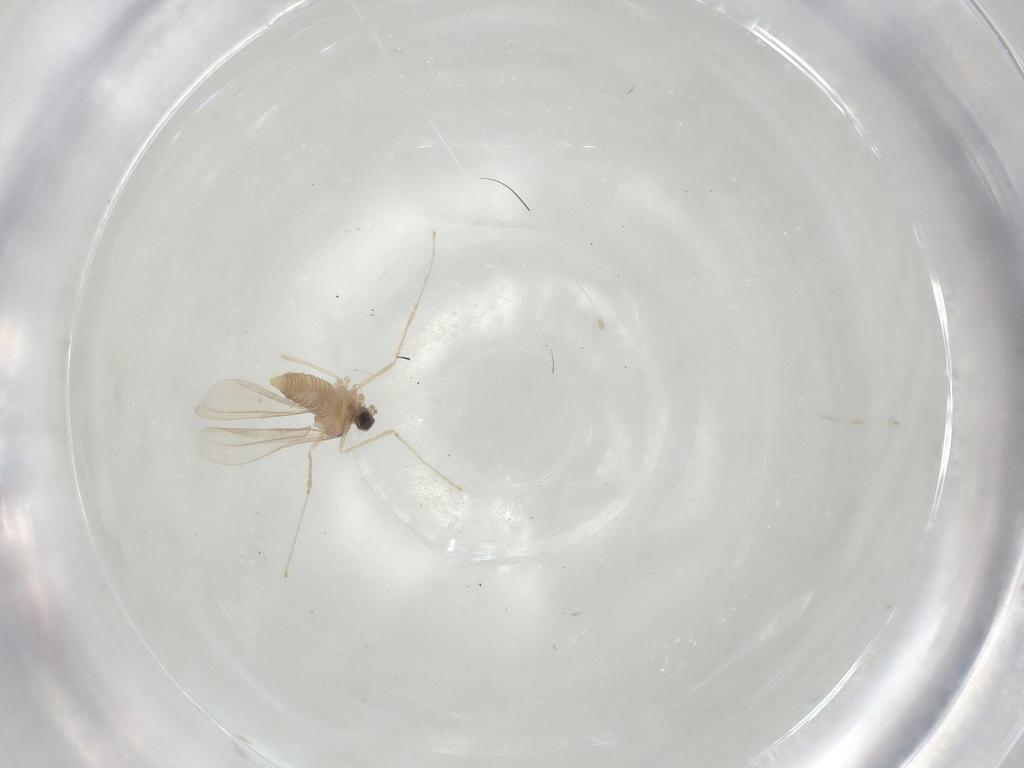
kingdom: Animalia
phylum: Arthropoda
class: Insecta
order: Diptera
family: Cecidomyiidae
